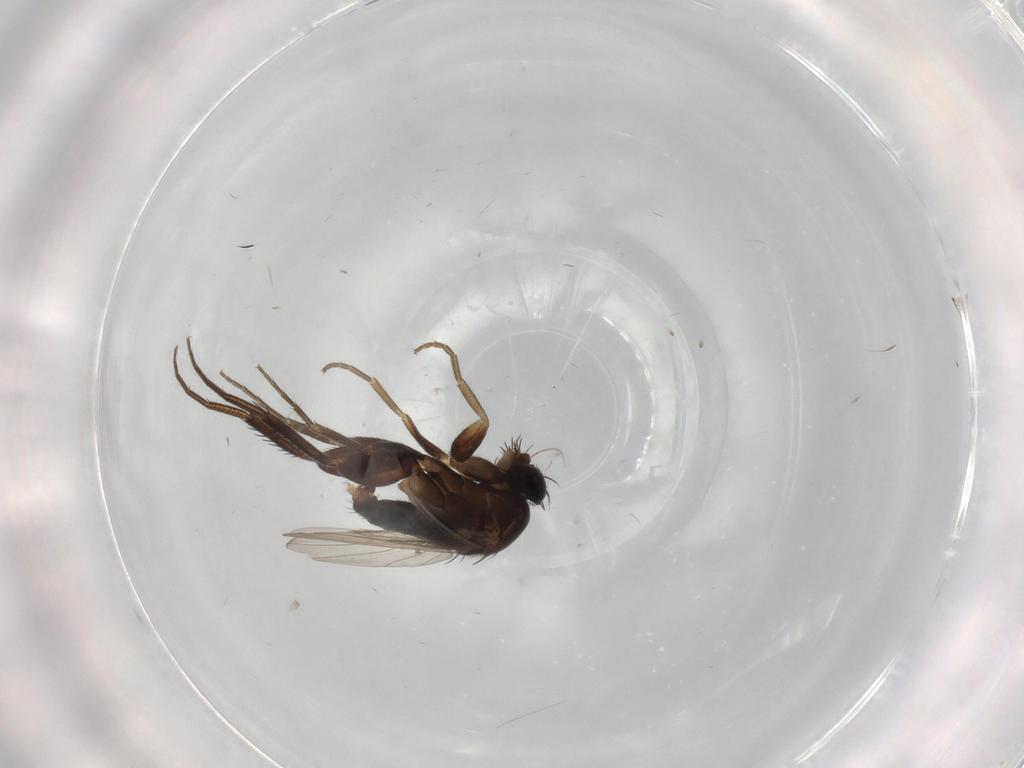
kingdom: Animalia
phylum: Arthropoda
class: Insecta
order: Diptera
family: Phoridae
